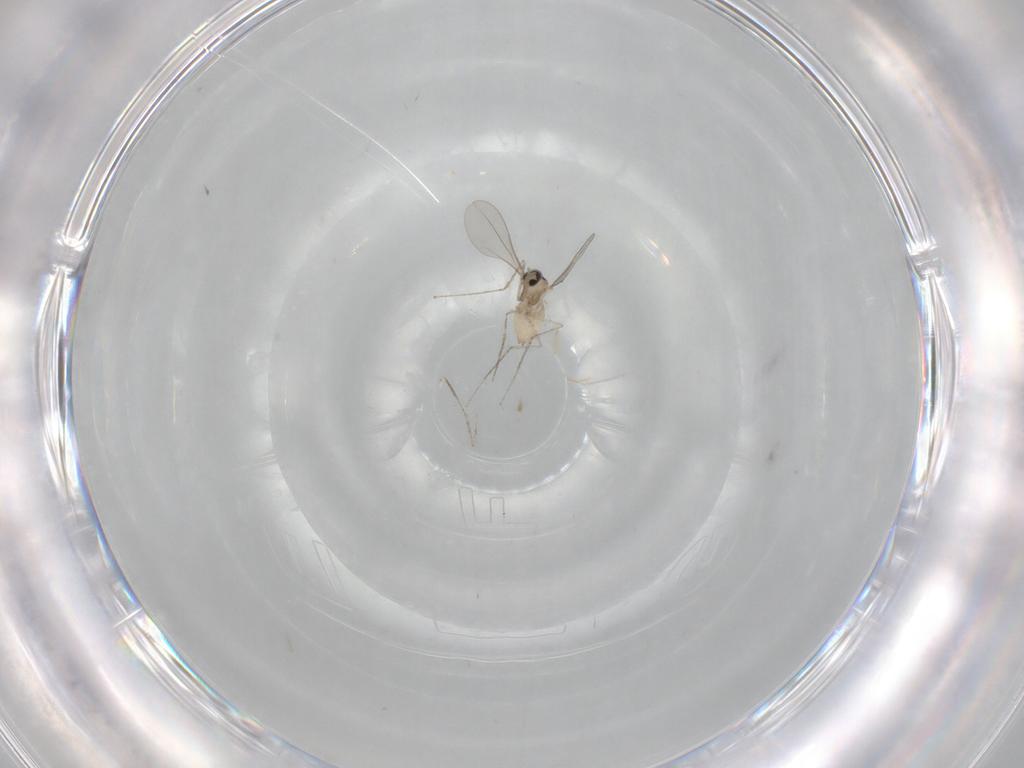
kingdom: Animalia
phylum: Arthropoda
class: Insecta
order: Diptera
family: Cecidomyiidae
